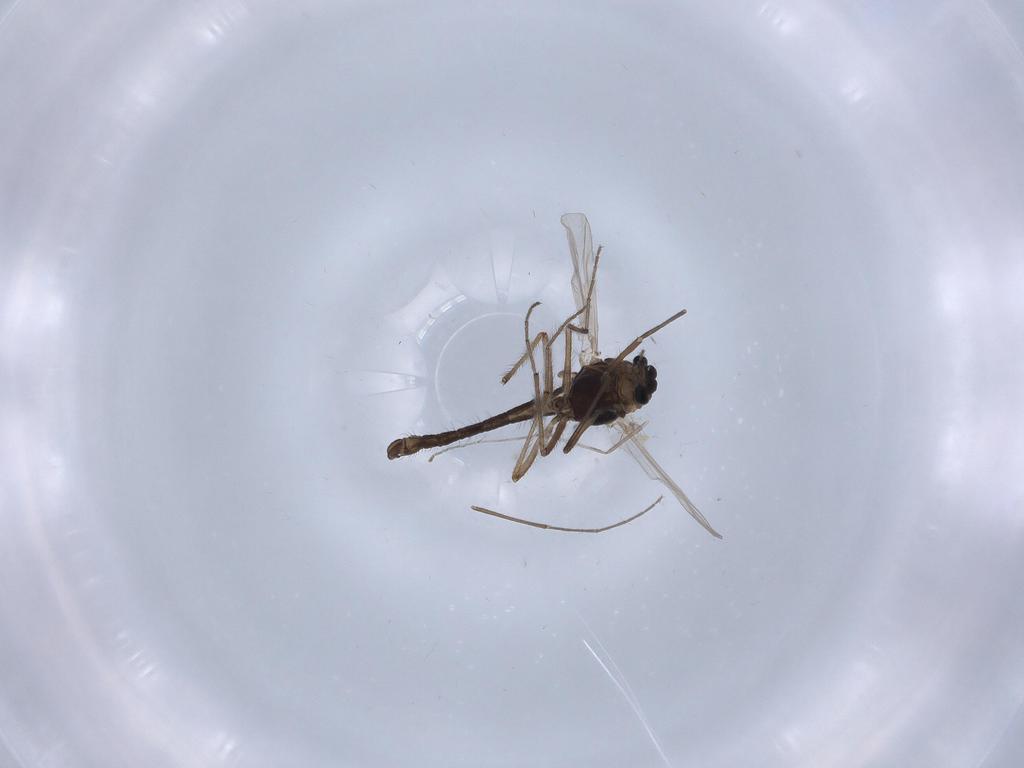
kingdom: Animalia
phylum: Arthropoda
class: Insecta
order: Diptera
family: Chironomidae
